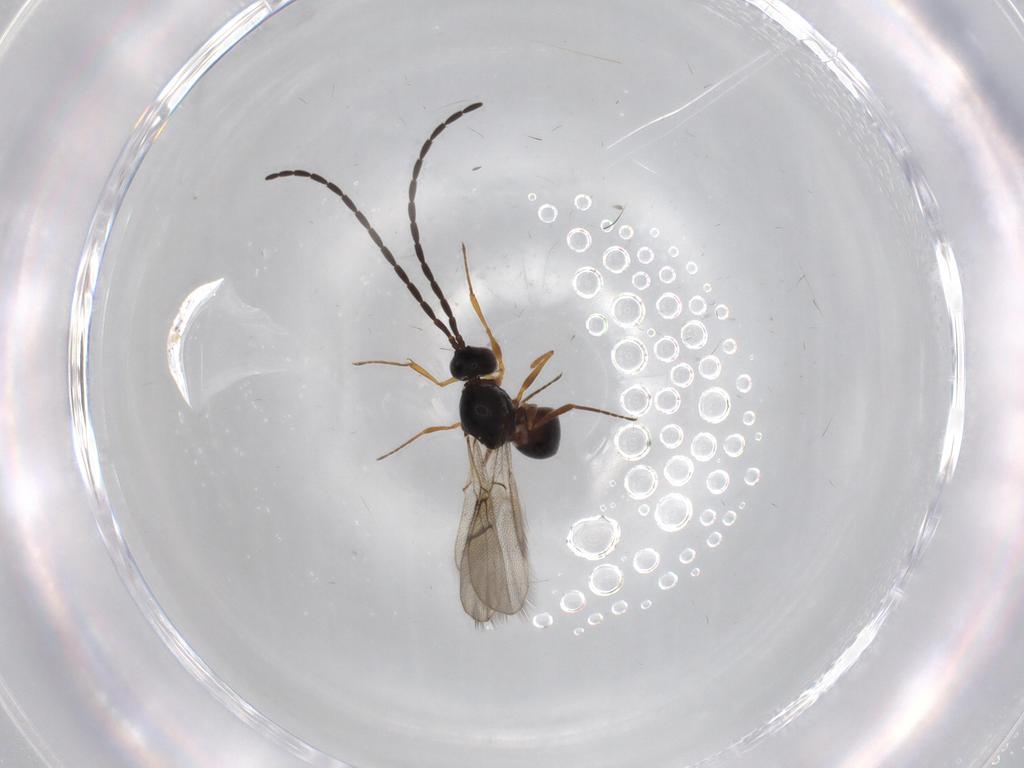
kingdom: Animalia
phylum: Arthropoda
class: Insecta
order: Hymenoptera
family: Figitidae
